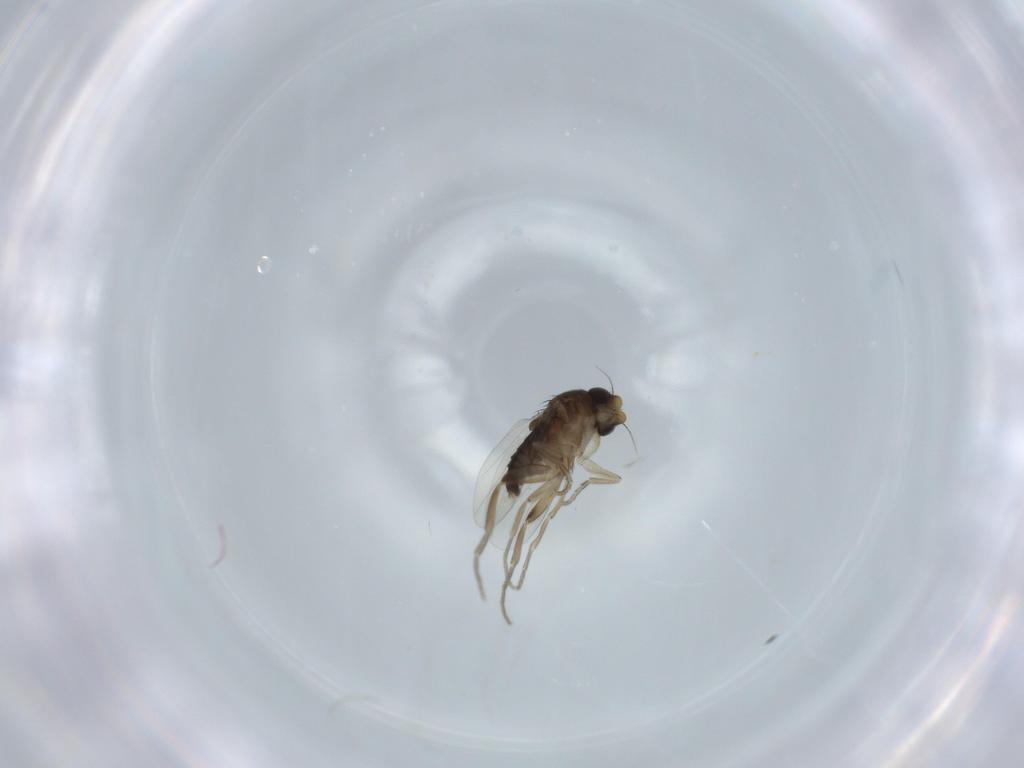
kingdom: Animalia
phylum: Arthropoda
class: Insecta
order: Diptera
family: Phoridae
